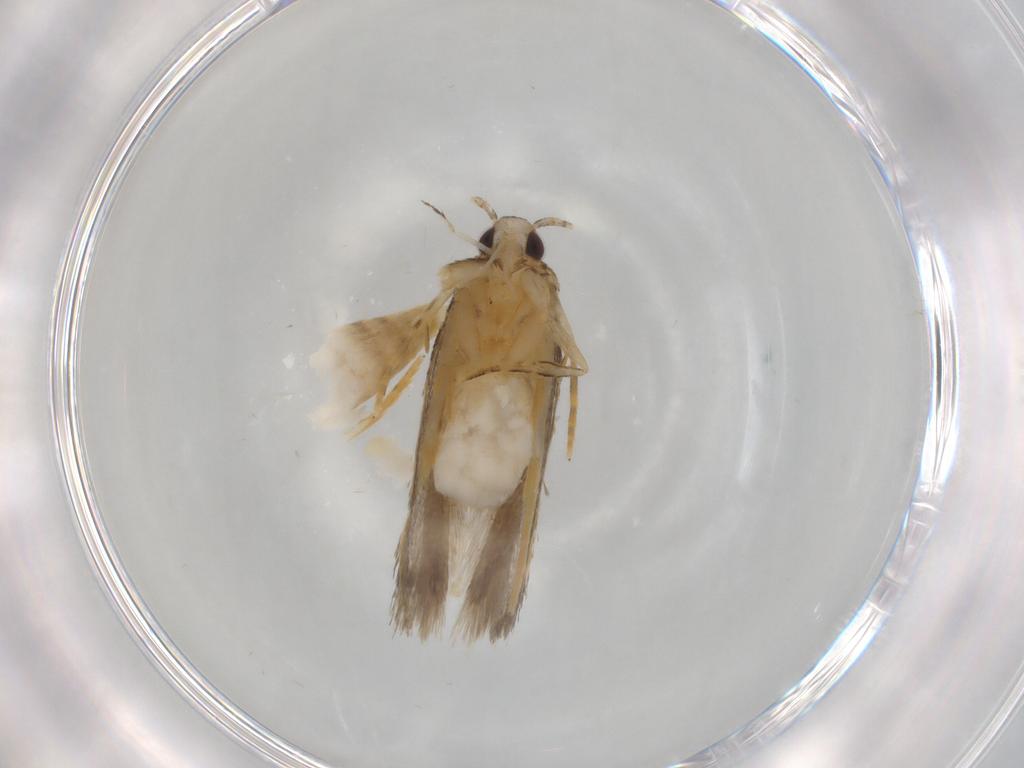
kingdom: Animalia
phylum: Arthropoda
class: Insecta
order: Lepidoptera
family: Autostichidae
